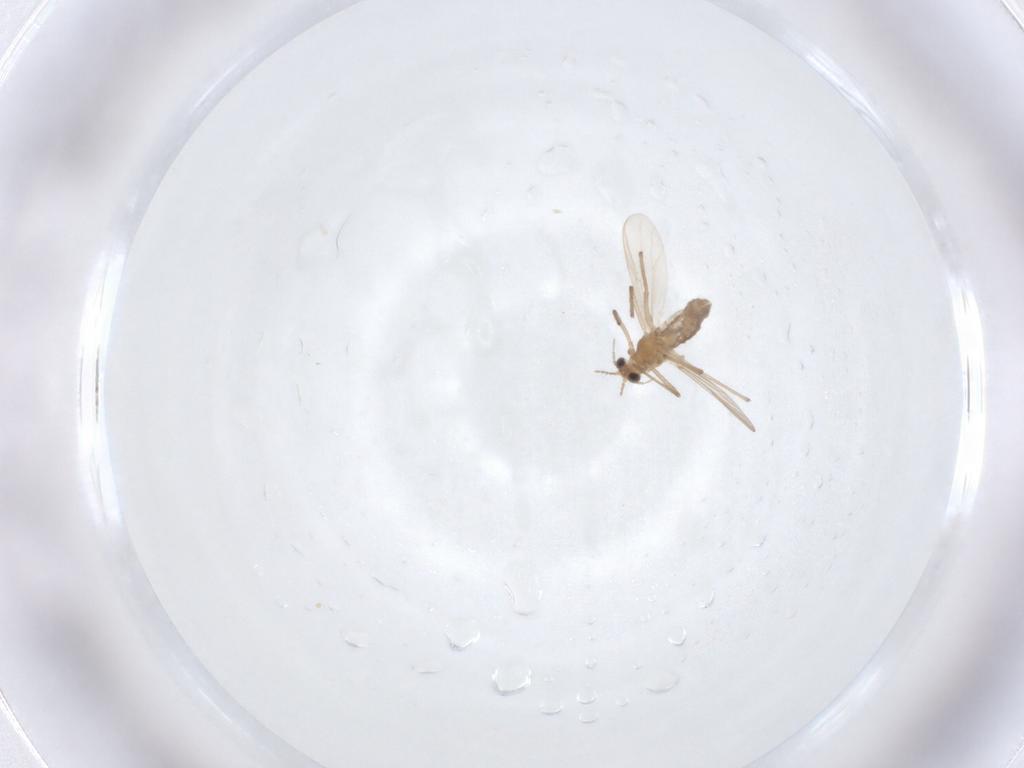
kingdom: Animalia
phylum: Arthropoda
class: Insecta
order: Diptera
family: Chironomidae
